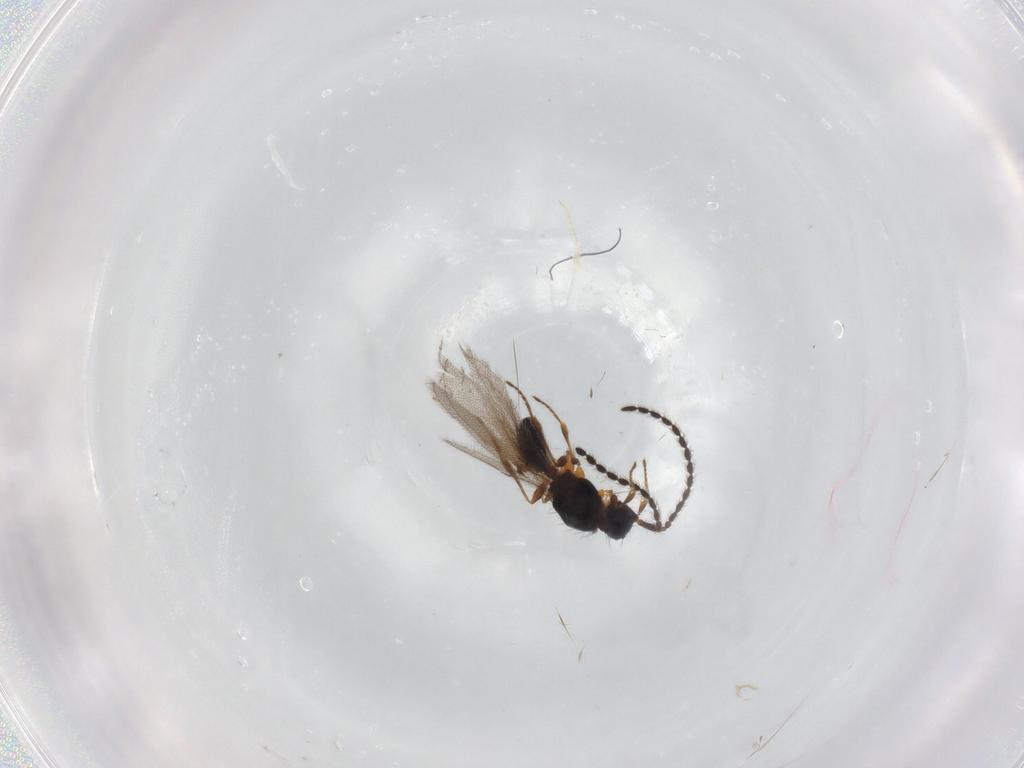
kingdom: Animalia
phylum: Arthropoda
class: Insecta
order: Hymenoptera
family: Diapriidae
